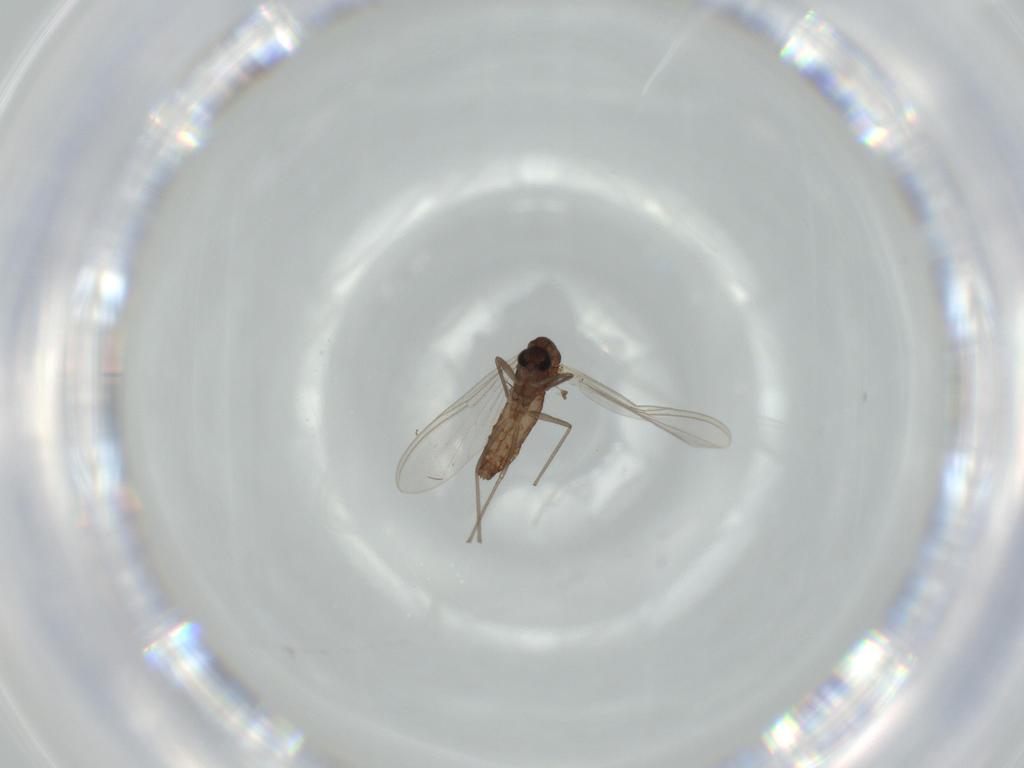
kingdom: Animalia
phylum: Arthropoda
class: Insecta
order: Diptera
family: Chironomidae
